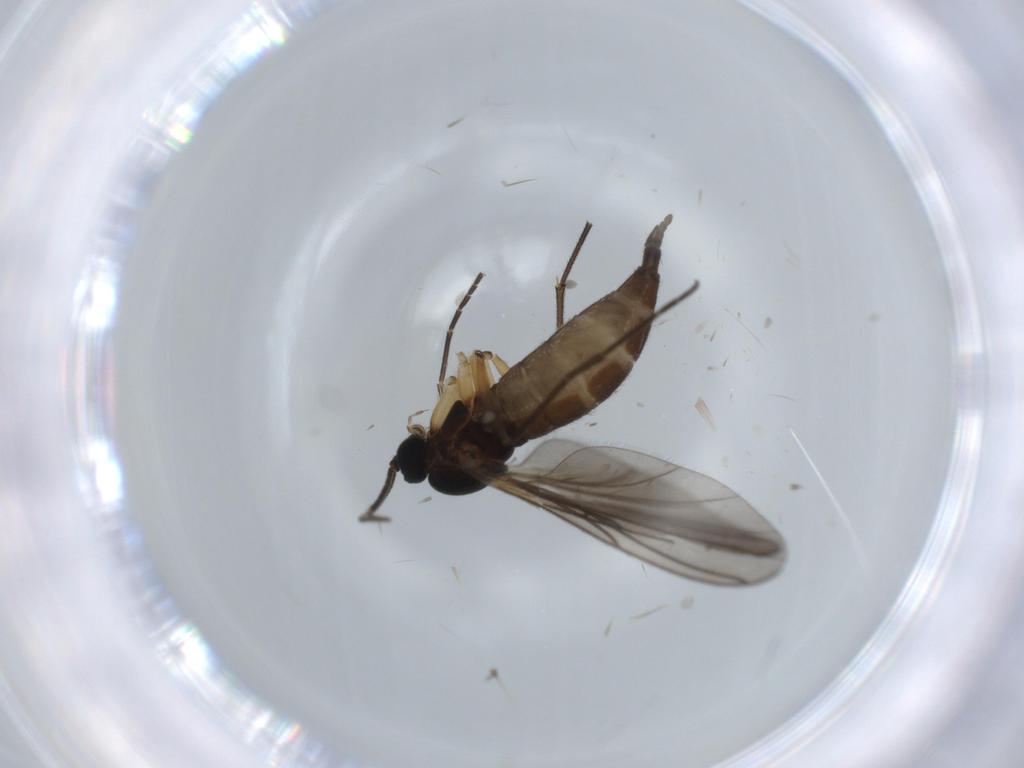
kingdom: Animalia
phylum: Arthropoda
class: Insecta
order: Diptera
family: Sciaridae
